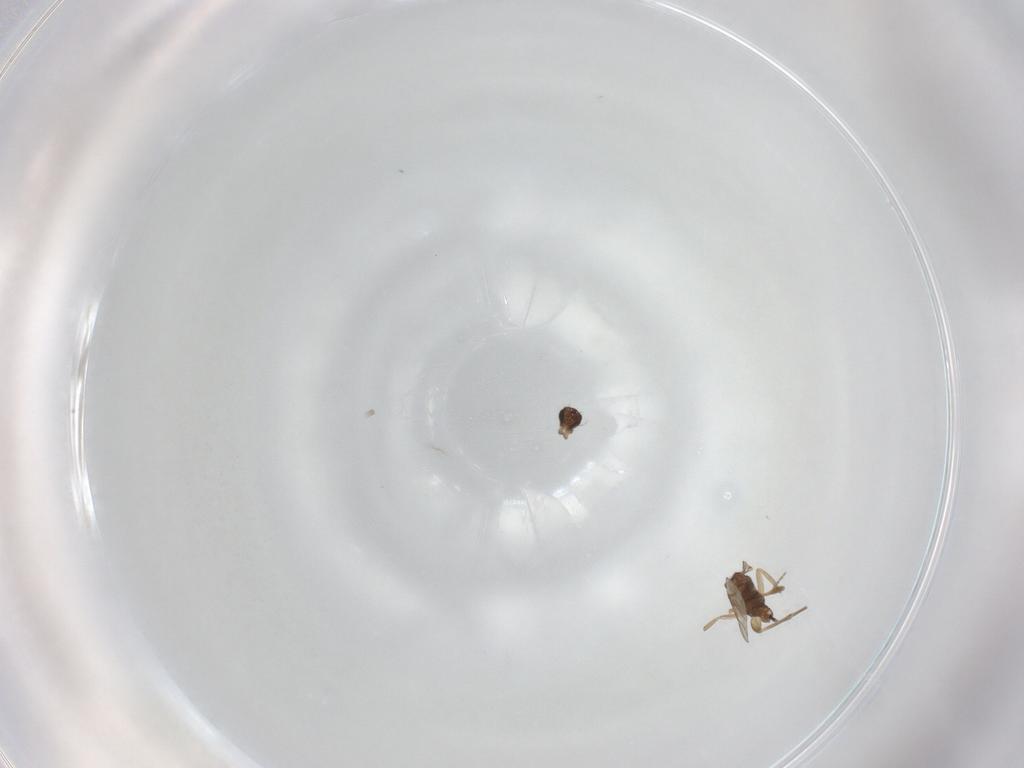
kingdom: Animalia
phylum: Arthropoda
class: Insecta
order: Diptera
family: Phoridae
